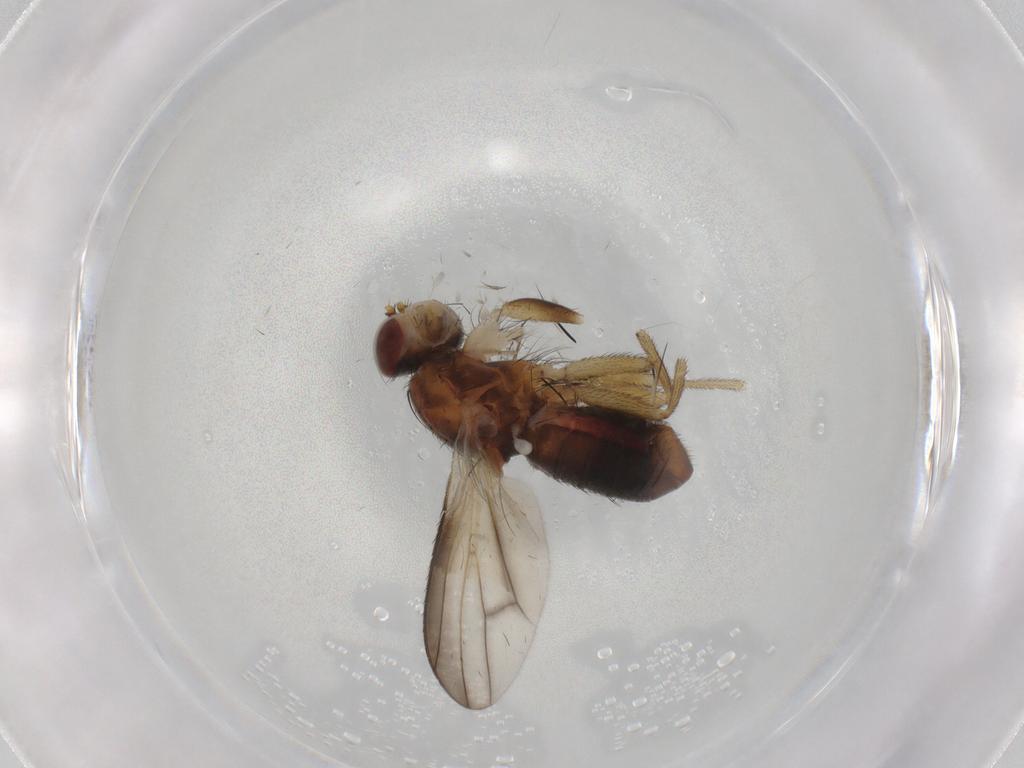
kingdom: Animalia
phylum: Arthropoda
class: Insecta
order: Diptera
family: Heleomyzidae
